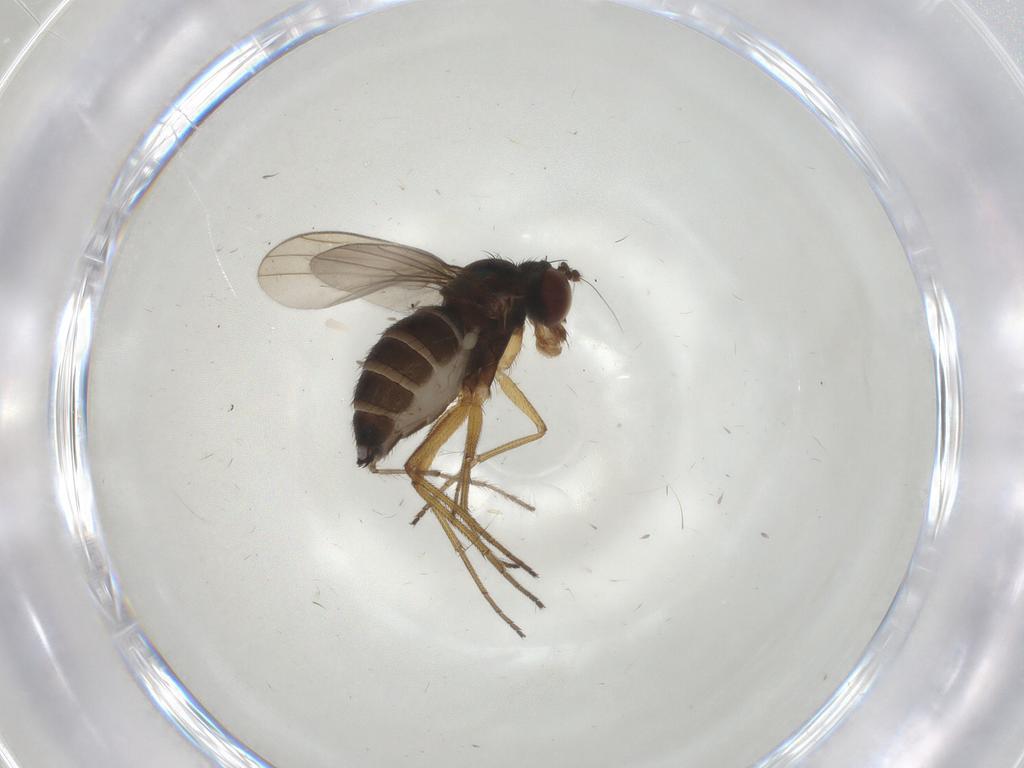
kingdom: Animalia
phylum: Arthropoda
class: Insecta
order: Diptera
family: Dolichopodidae
